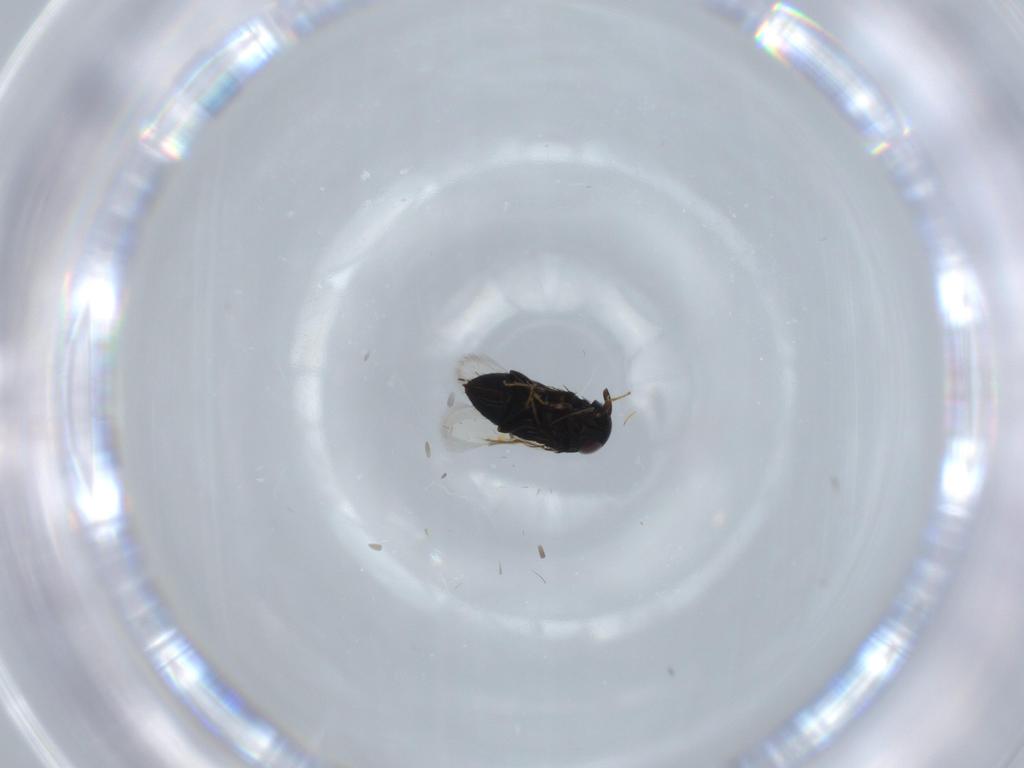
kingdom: Animalia
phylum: Arthropoda
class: Insecta
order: Hymenoptera
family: Signiphoridae
